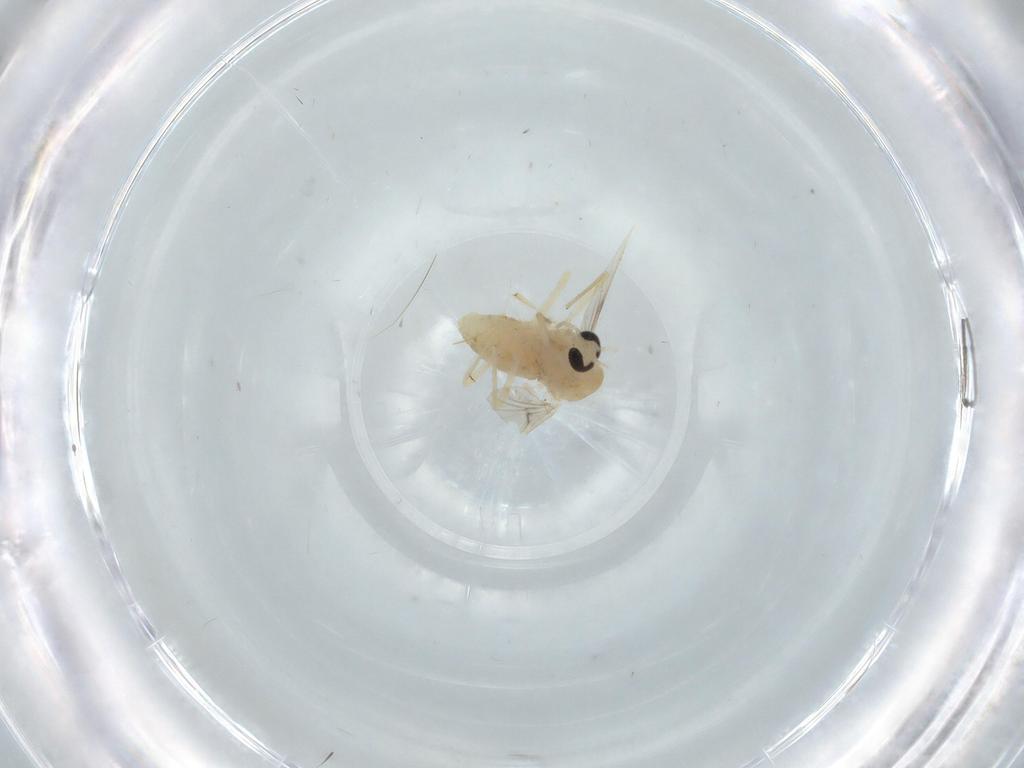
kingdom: Animalia
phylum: Arthropoda
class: Insecta
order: Diptera
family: Chironomidae
